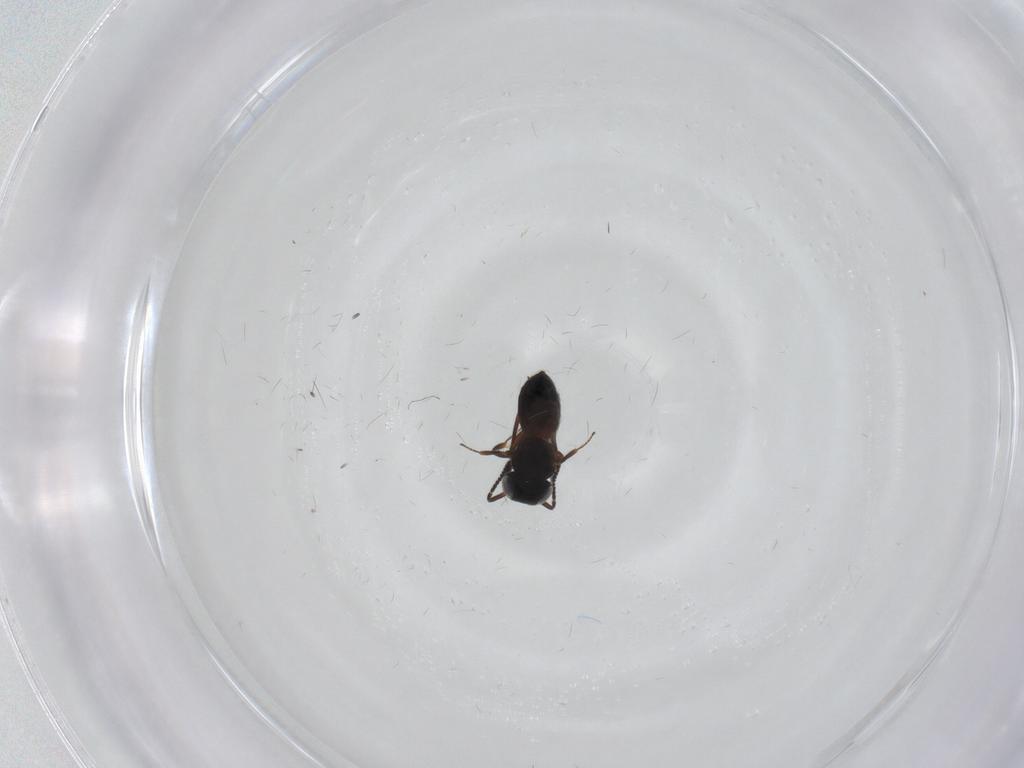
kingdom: Animalia
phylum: Arthropoda
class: Insecta
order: Hymenoptera
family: Scelionidae
